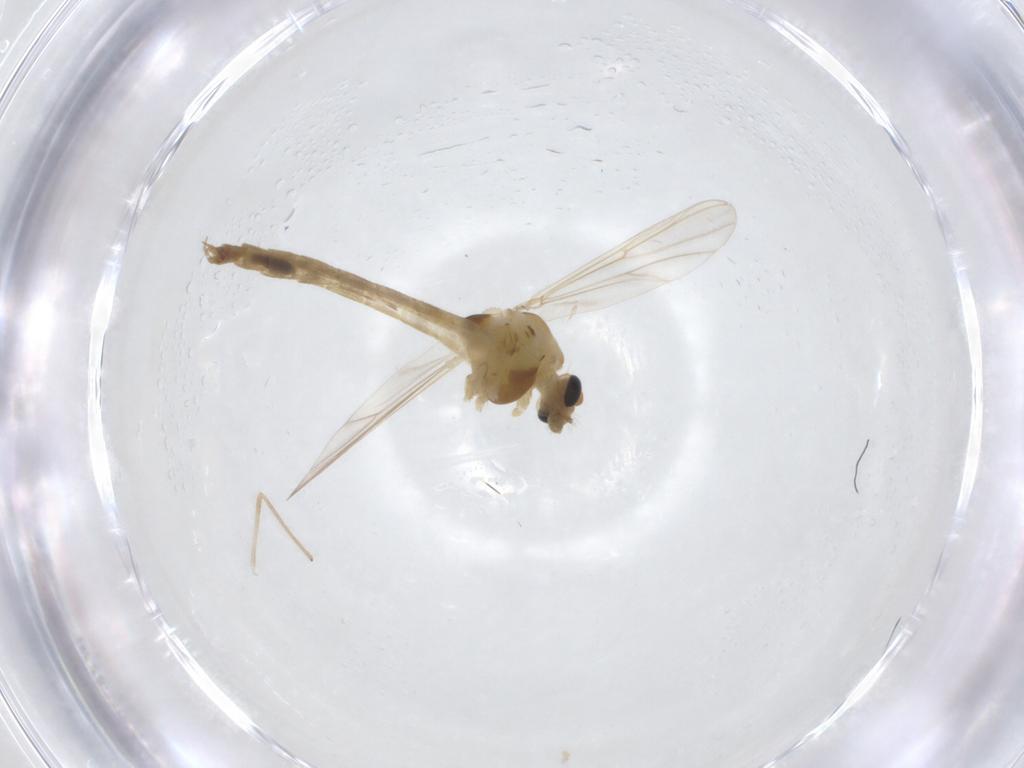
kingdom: Animalia
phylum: Arthropoda
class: Insecta
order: Diptera
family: Chironomidae
